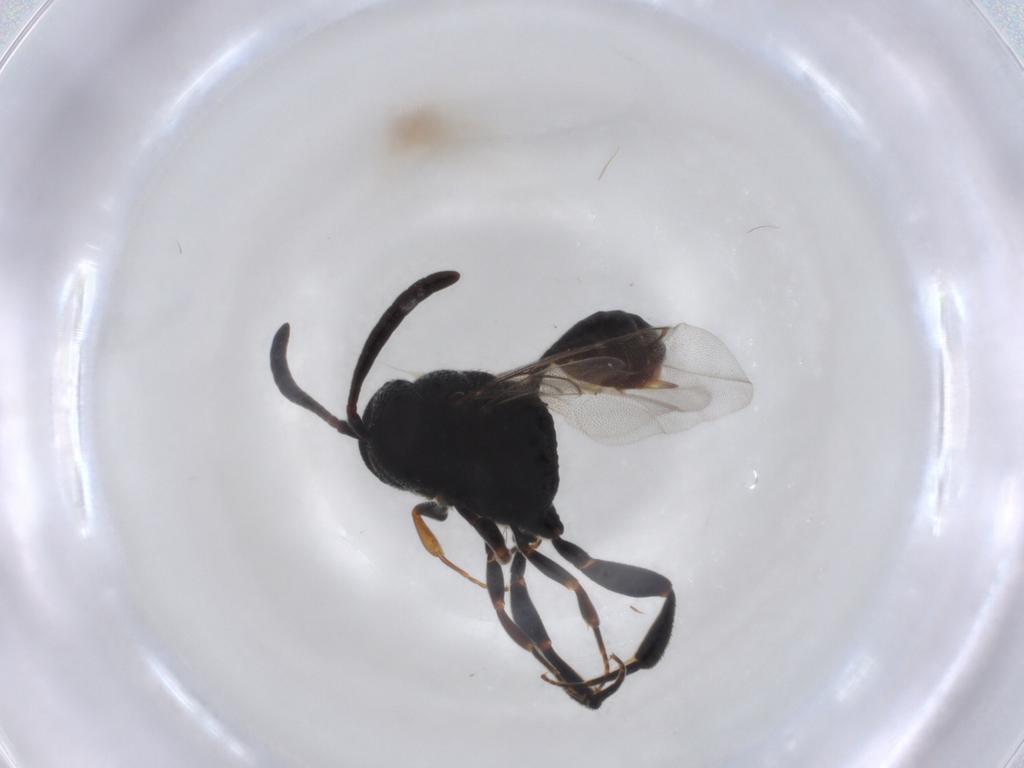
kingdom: Animalia
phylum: Arthropoda
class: Insecta
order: Hymenoptera
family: Evaniidae
